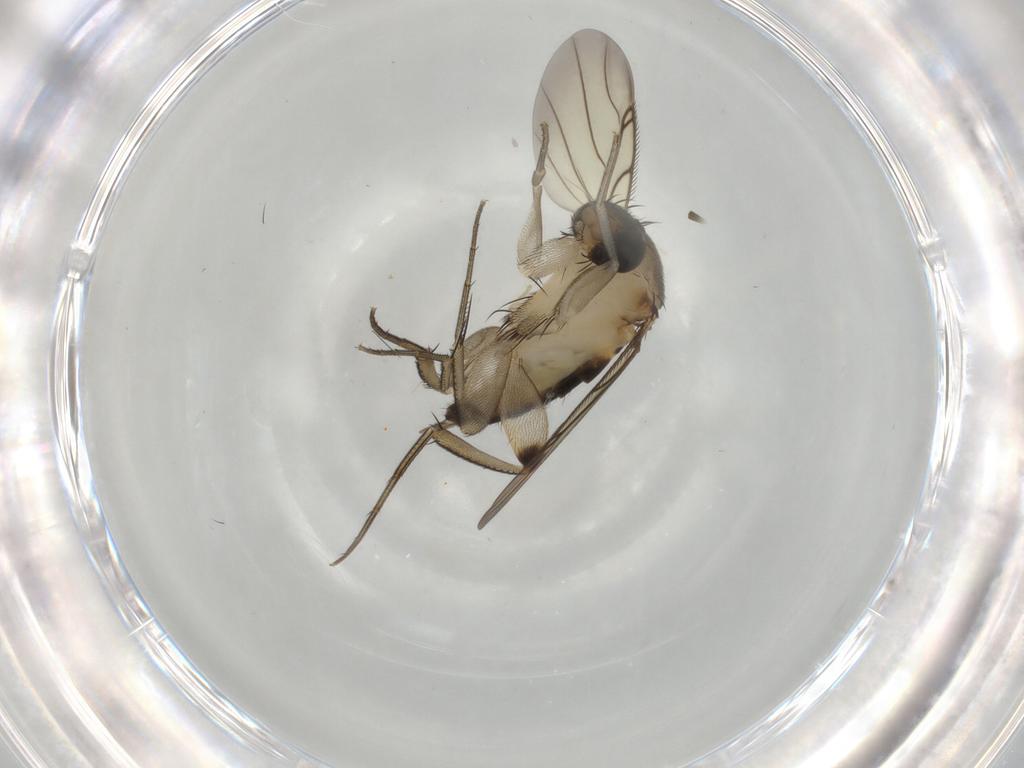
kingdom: Animalia
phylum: Arthropoda
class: Insecta
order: Diptera
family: Phoridae
